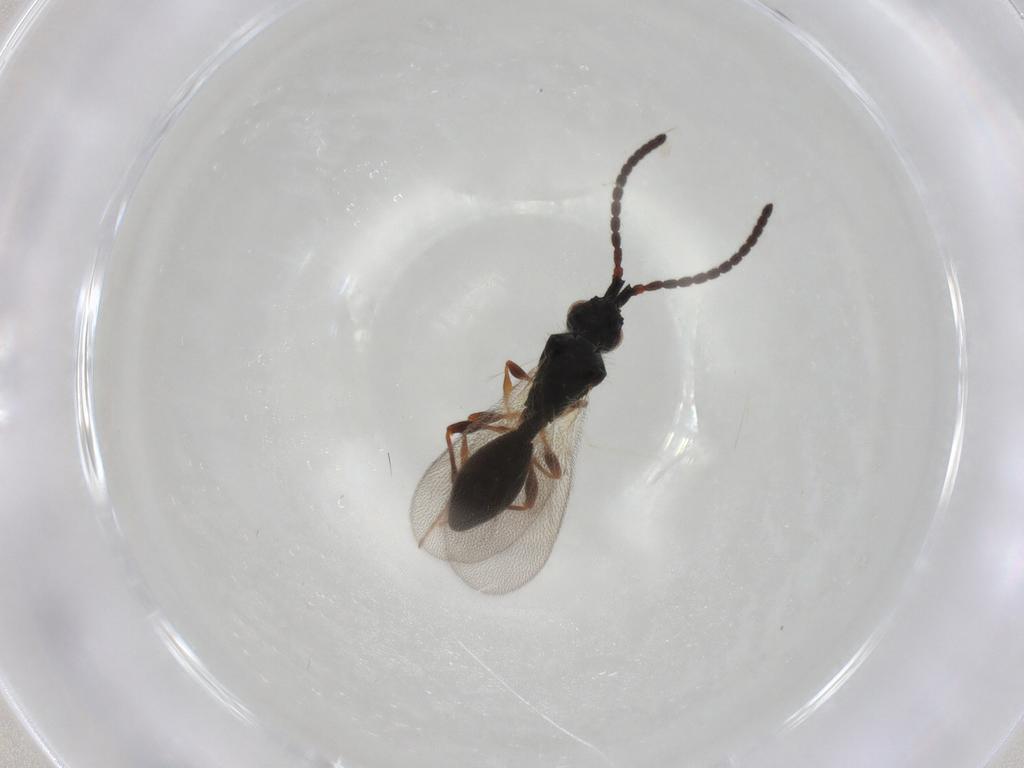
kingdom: Animalia
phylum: Arthropoda
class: Insecta
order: Hymenoptera
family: Diapriidae
